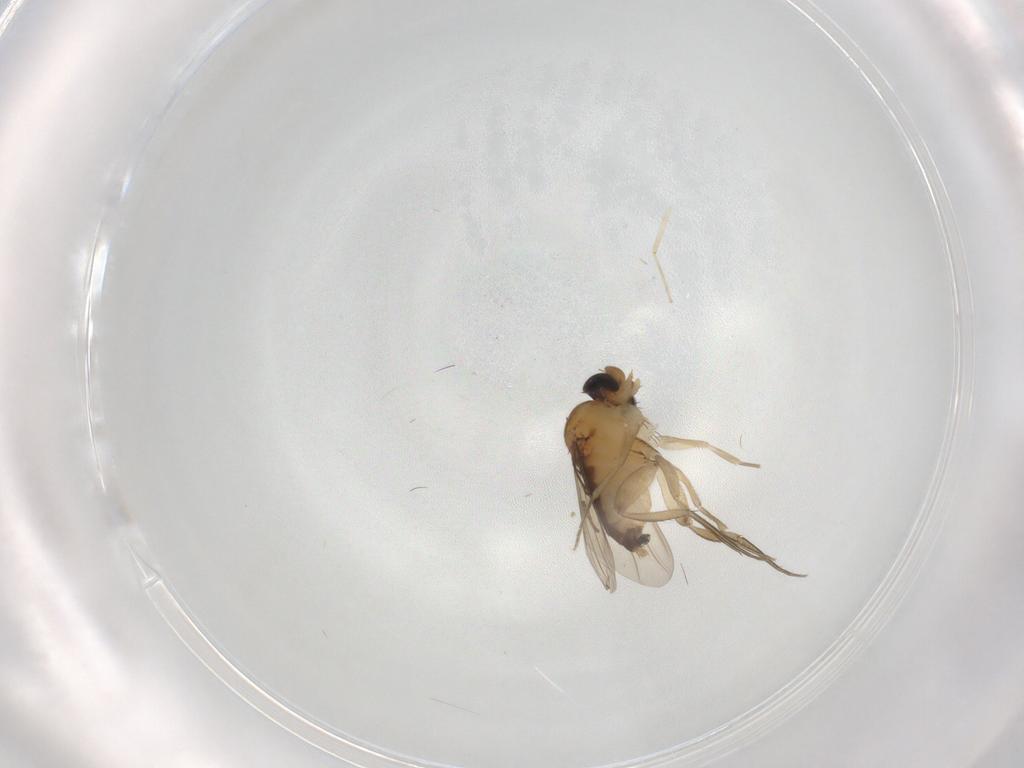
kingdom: Animalia
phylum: Arthropoda
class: Insecta
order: Diptera
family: Phoridae
